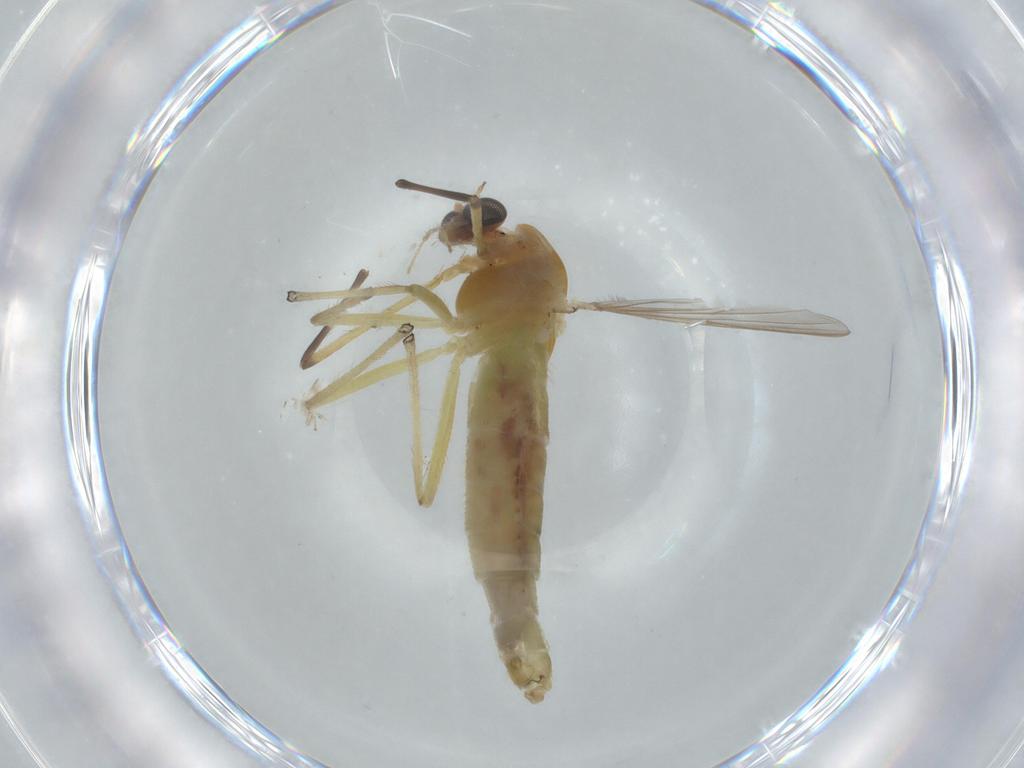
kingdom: Animalia
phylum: Arthropoda
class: Insecta
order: Diptera
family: Chironomidae
